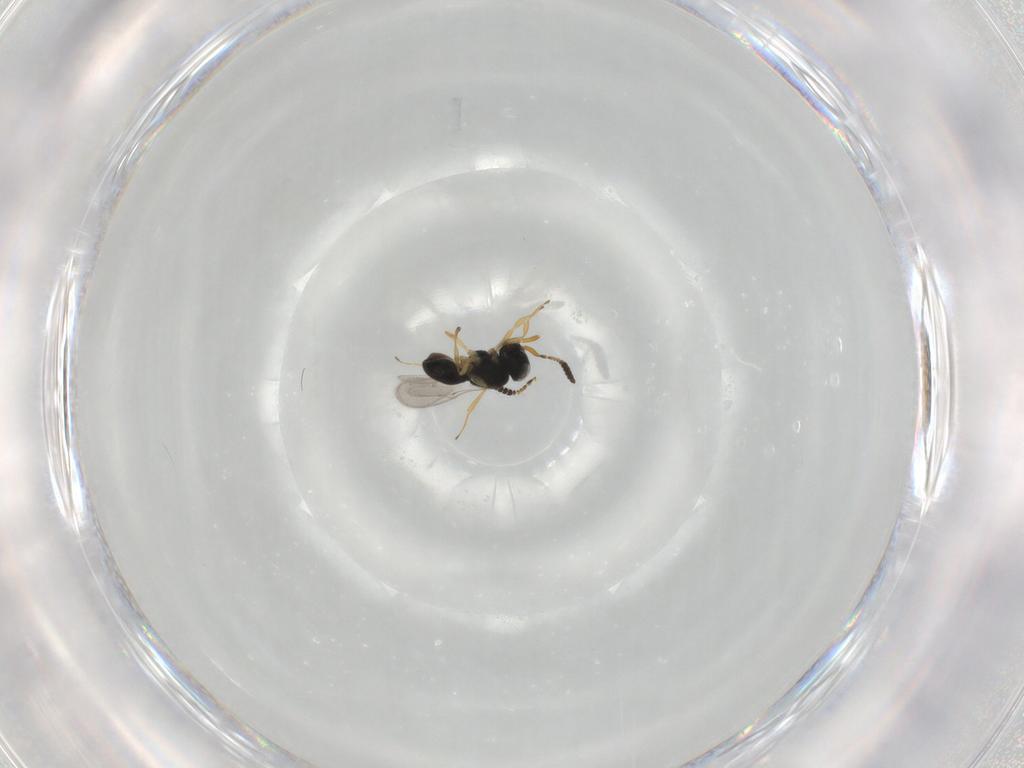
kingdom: Animalia
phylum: Arthropoda
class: Insecta
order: Hymenoptera
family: Scelionidae
